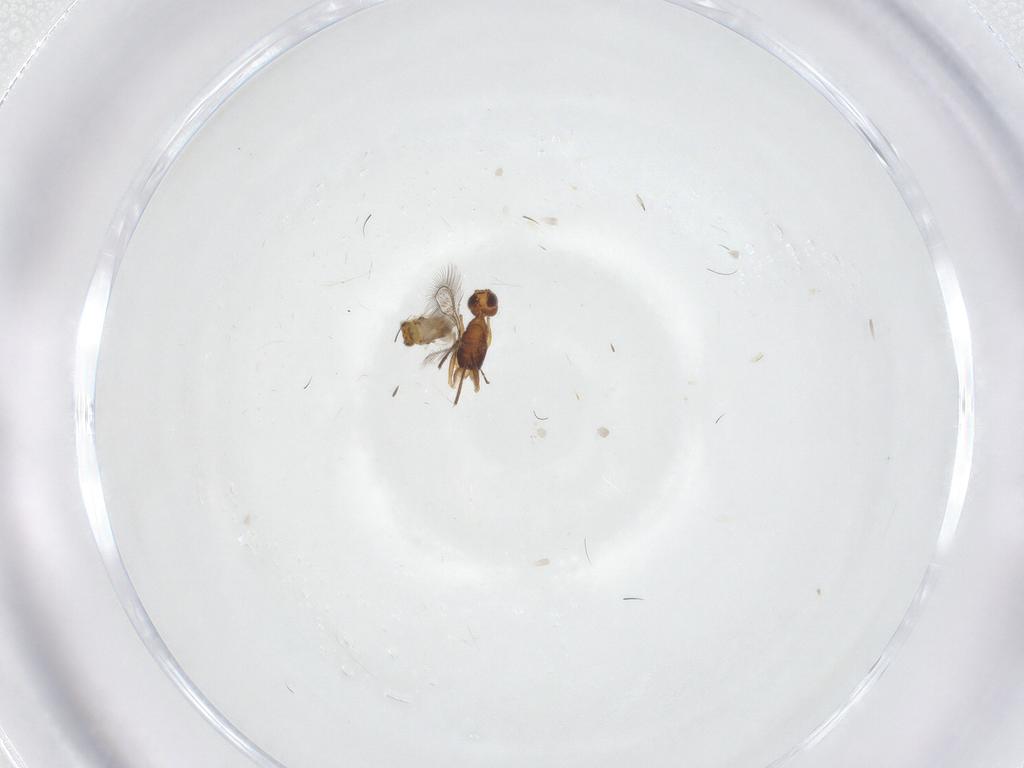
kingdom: Animalia
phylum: Arthropoda
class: Insecta
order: Hymenoptera
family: Mymaridae
